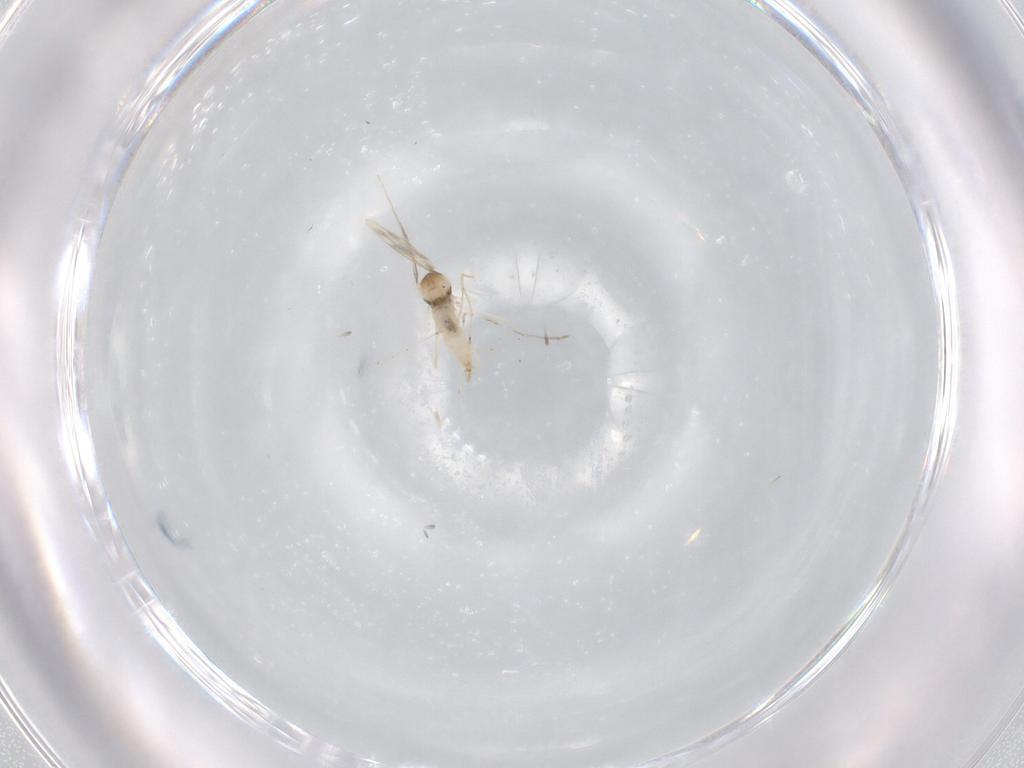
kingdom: Animalia
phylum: Arthropoda
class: Insecta
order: Diptera
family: Cecidomyiidae
